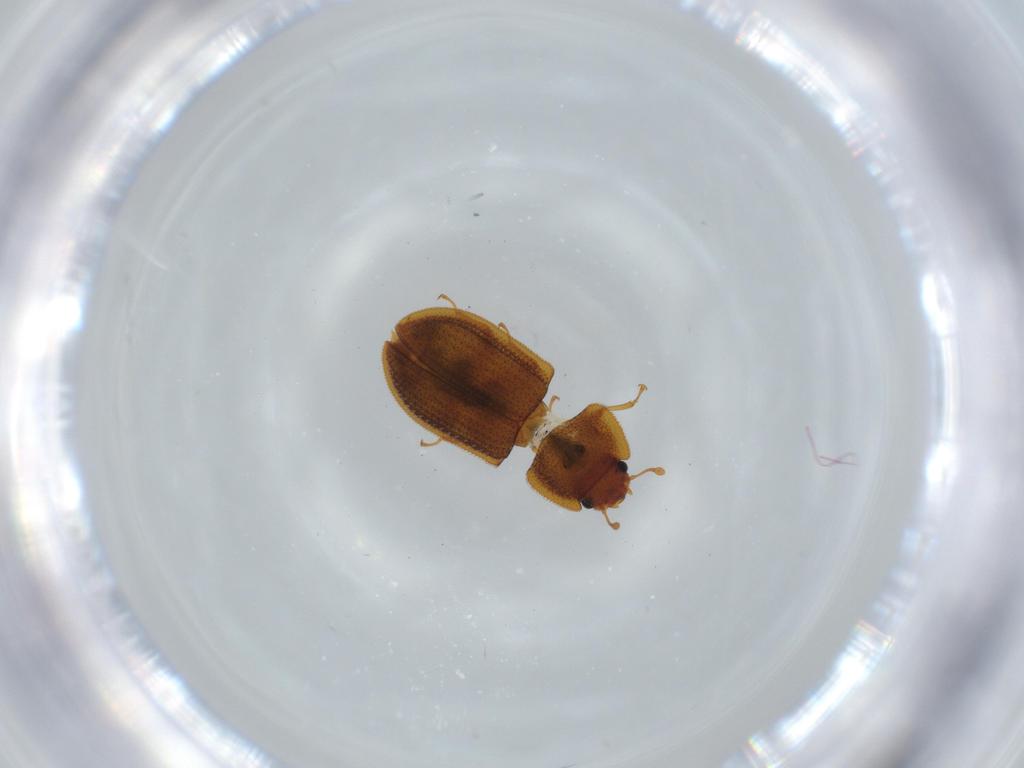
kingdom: Animalia
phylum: Arthropoda
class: Insecta
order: Coleoptera
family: Zopheridae
